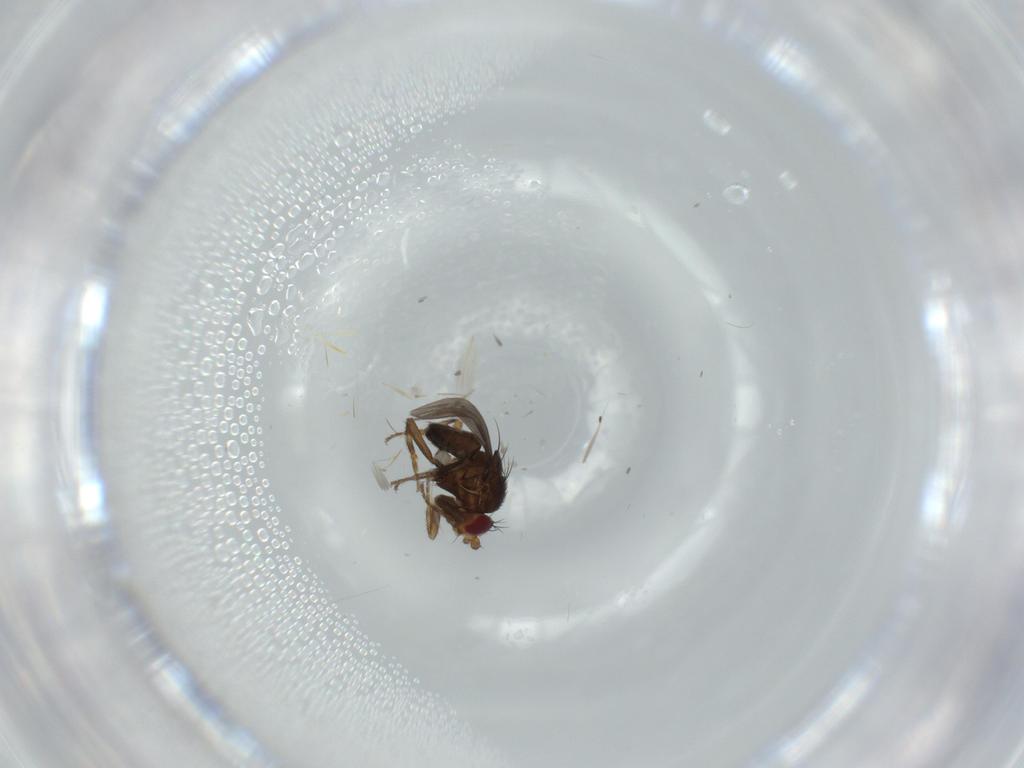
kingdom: Animalia
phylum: Arthropoda
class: Insecta
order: Diptera
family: Cecidomyiidae
